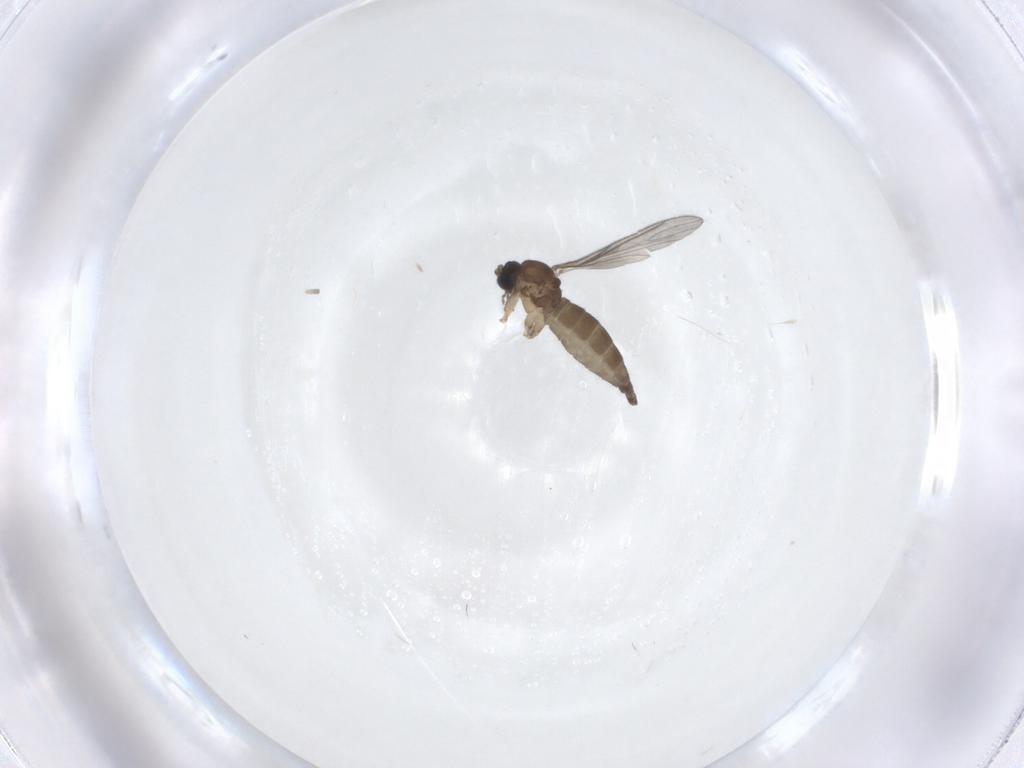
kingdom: Animalia
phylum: Arthropoda
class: Insecta
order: Diptera
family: Sciaridae
